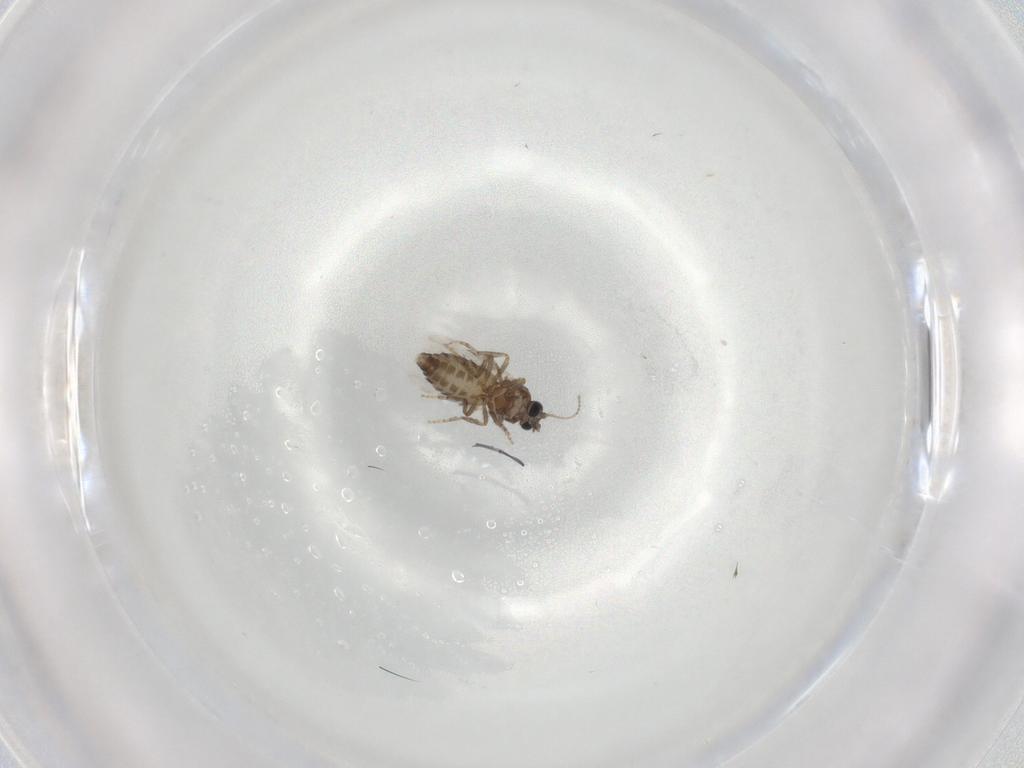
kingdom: Animalia
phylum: Arthropoda
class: Insecta
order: Diptera
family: Ceratopogonidae
